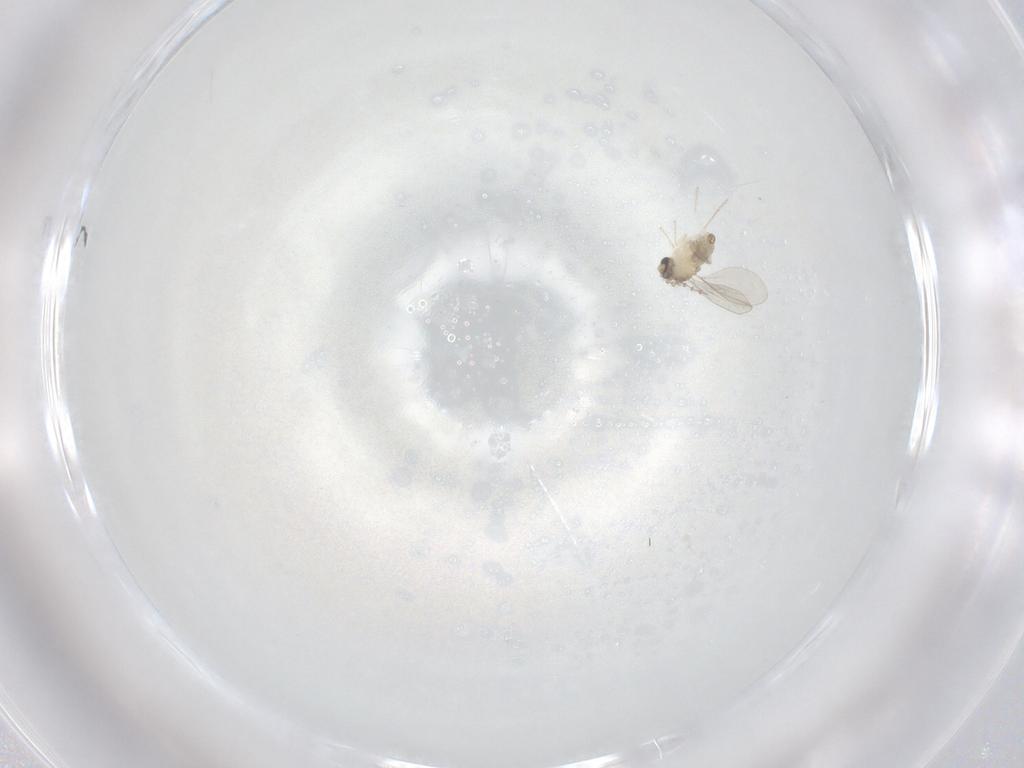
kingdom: Animalia
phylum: Arthropoda
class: Insecta
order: Diptera
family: Cecidomyiidae
